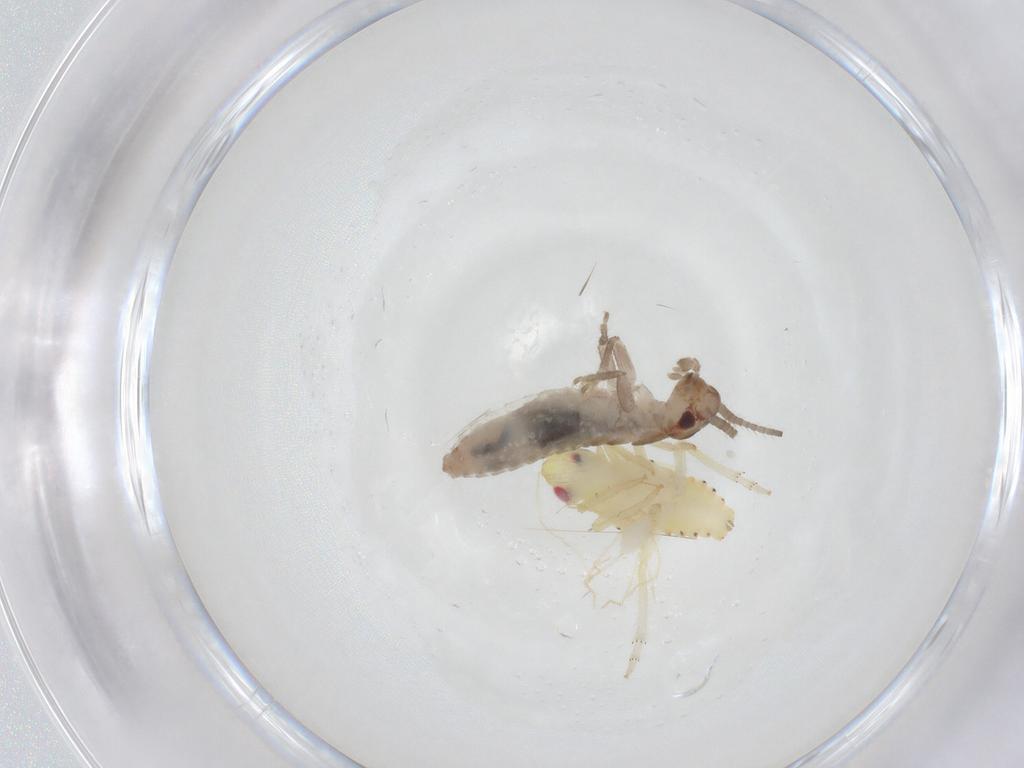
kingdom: Animalia
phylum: Arthropoda
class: Insecta
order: Hemiptera
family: Tropiduchidae
